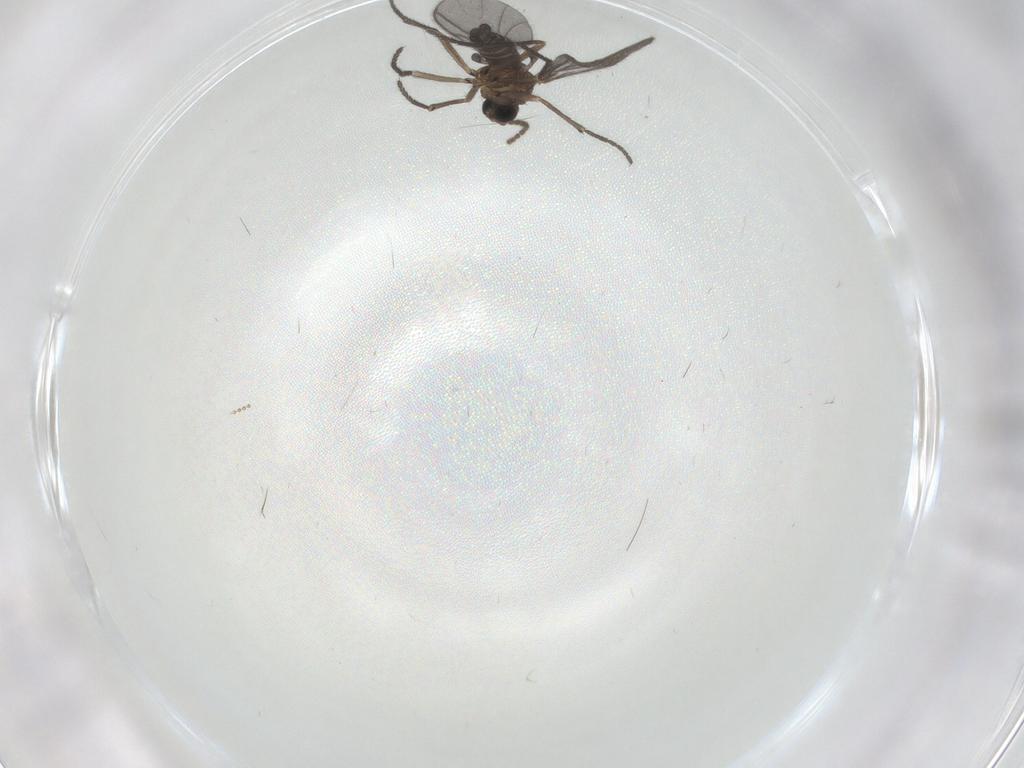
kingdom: Animalia
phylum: Arthropoda
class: Insecta
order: Diptera
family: Sciaridae
